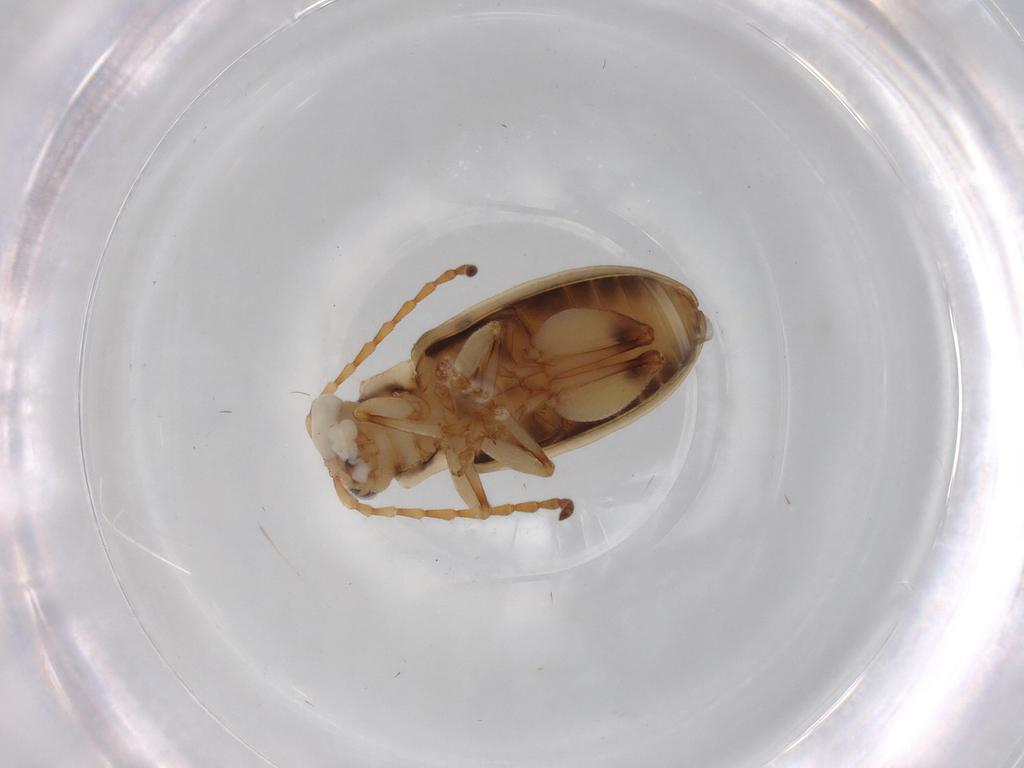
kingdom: Animalia
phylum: Arthropoda
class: Insecta
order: Coleoptera
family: Chrysomelidae
